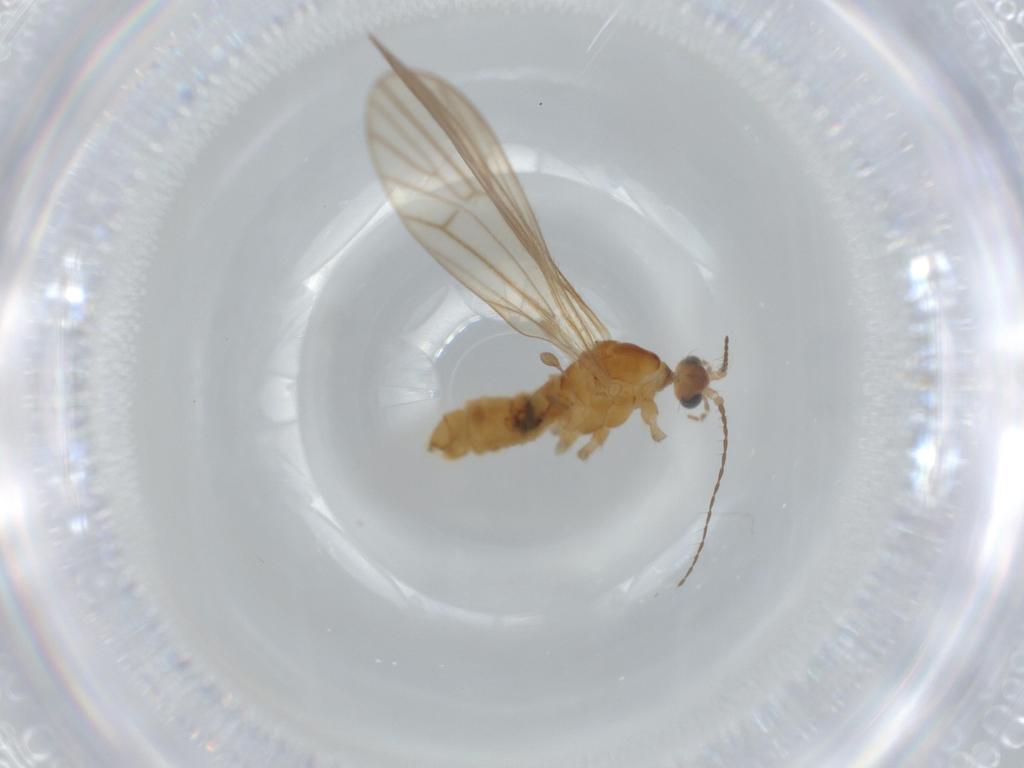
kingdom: Animalia
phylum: Arthropoda
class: Insecta
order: Diptera
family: Limoniidae
